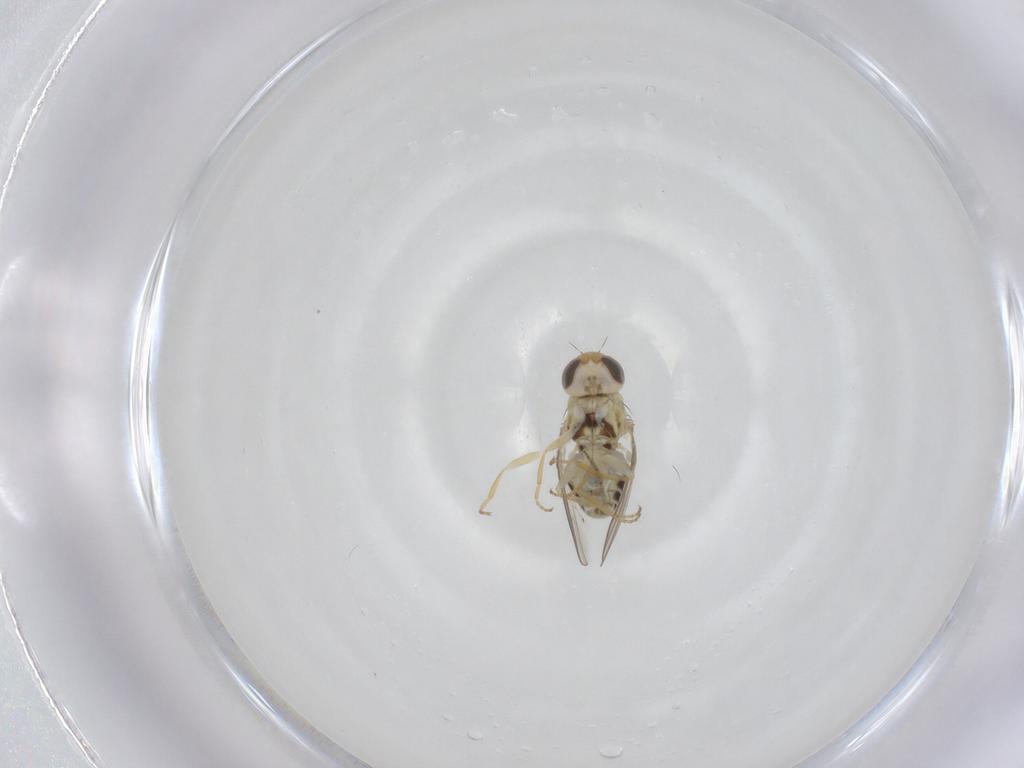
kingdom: Animalia
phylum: Arthropoda
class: Insecta
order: Diptera
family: Chyromyidae
